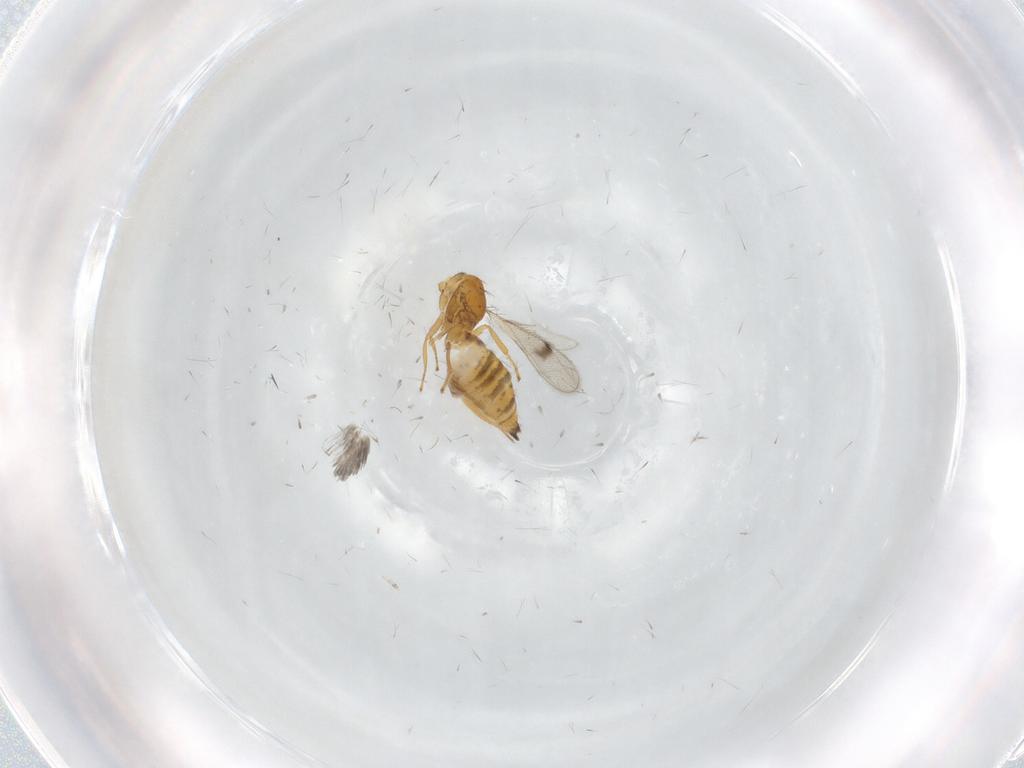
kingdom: Animalia
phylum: Arthropoda
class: Insecta
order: Hymenoptera
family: Eulophidae
